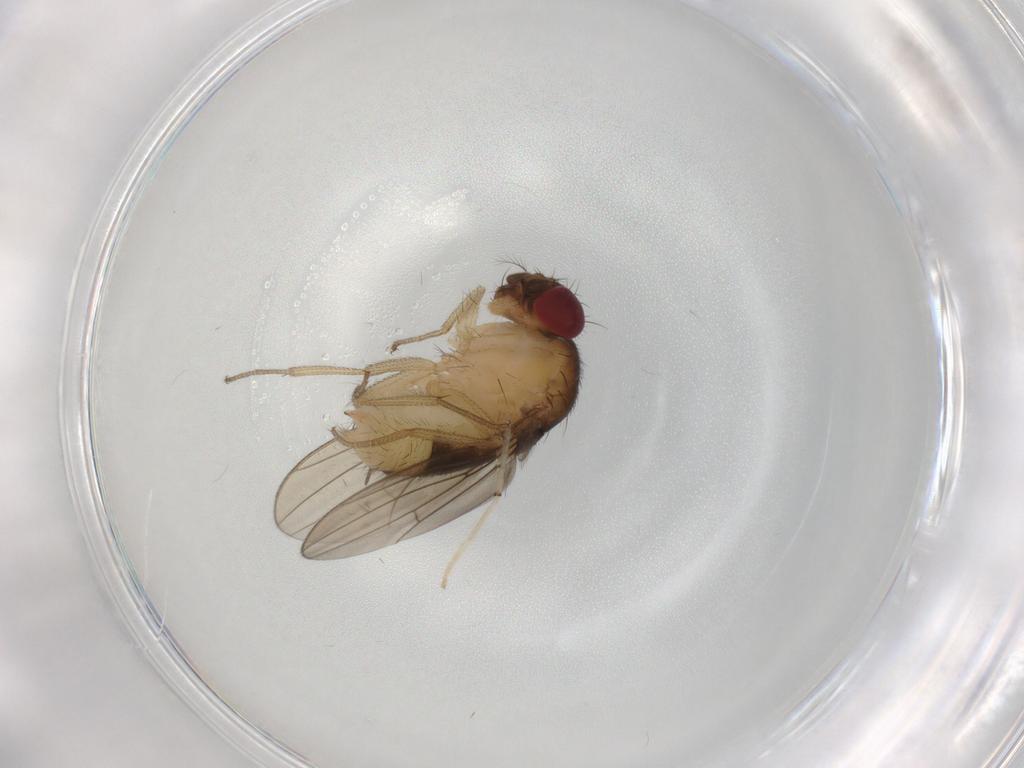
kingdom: Animalia
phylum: Arthropoda
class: Insecta
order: Diptera
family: Drosophilidae
